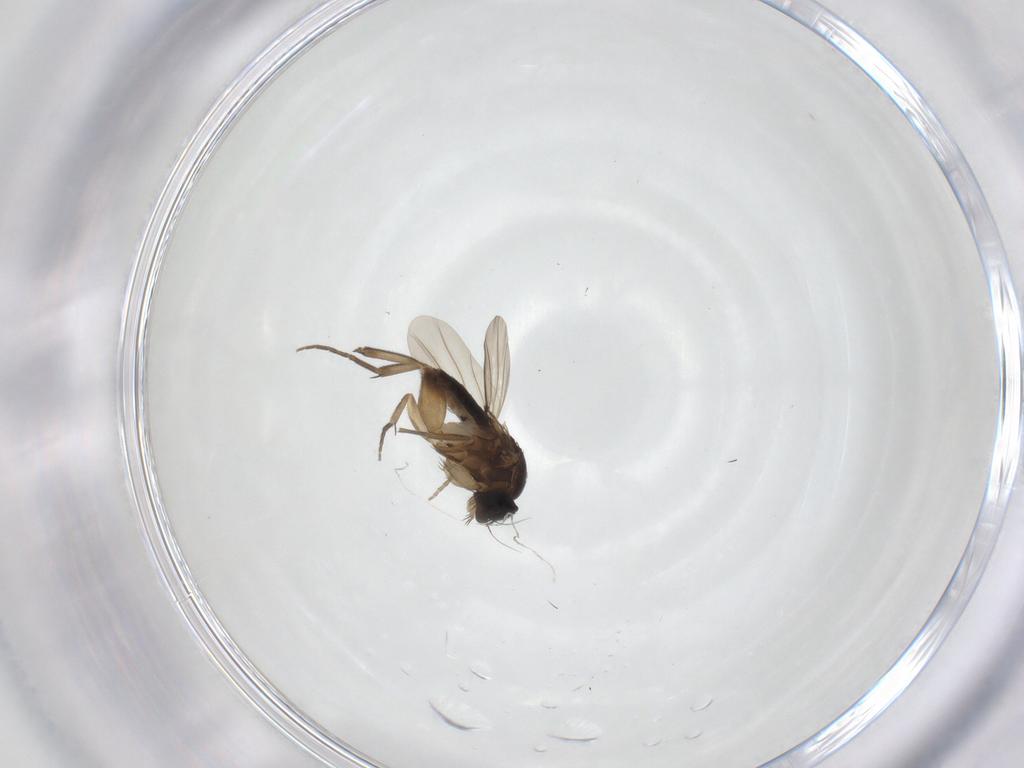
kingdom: Animalia
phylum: Arthropoda
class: Insecta
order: Diptera
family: Phoridae
